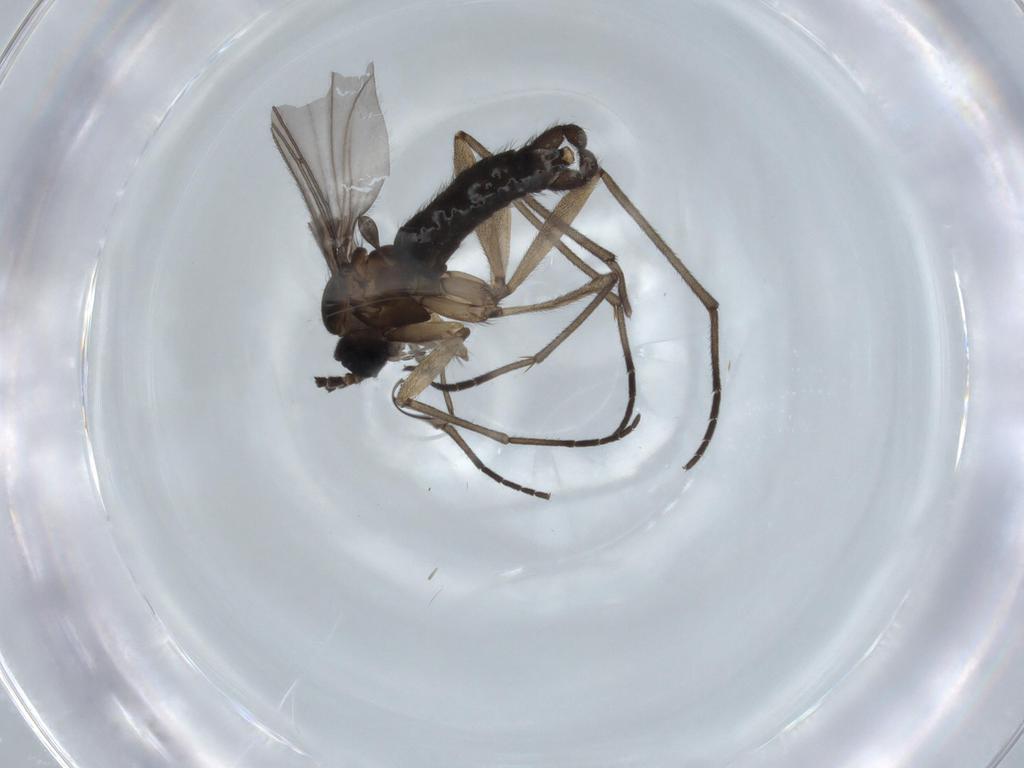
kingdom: Animalia
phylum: Arthropoda
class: Insecta
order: Diptera
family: Sciaridae
